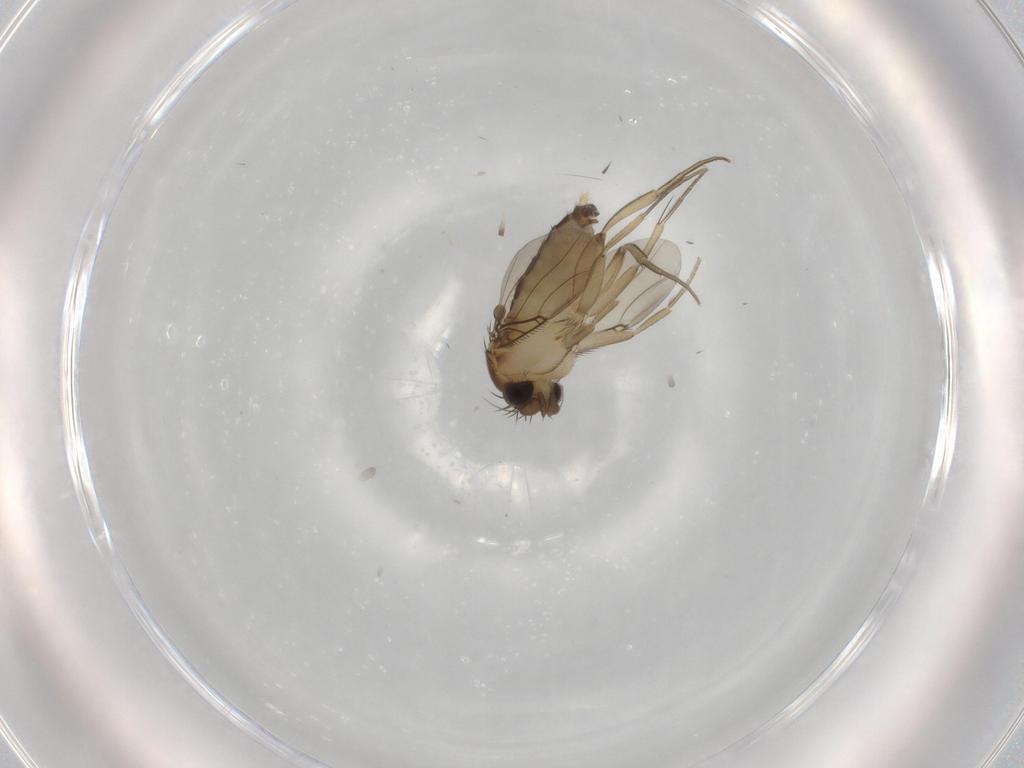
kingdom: Animalia
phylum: Arthropoda
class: Insecta
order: Diptera
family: Phoridae
